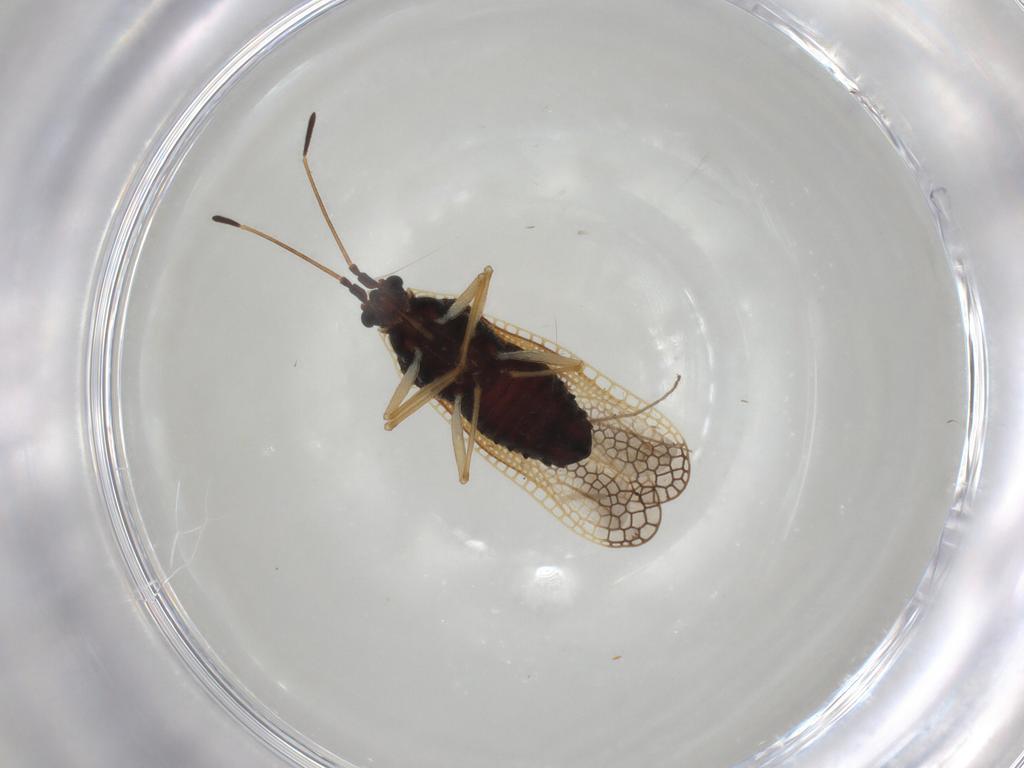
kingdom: Animalia
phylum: Arthropoda
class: Insecta
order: Hemiptera
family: Tingidae
